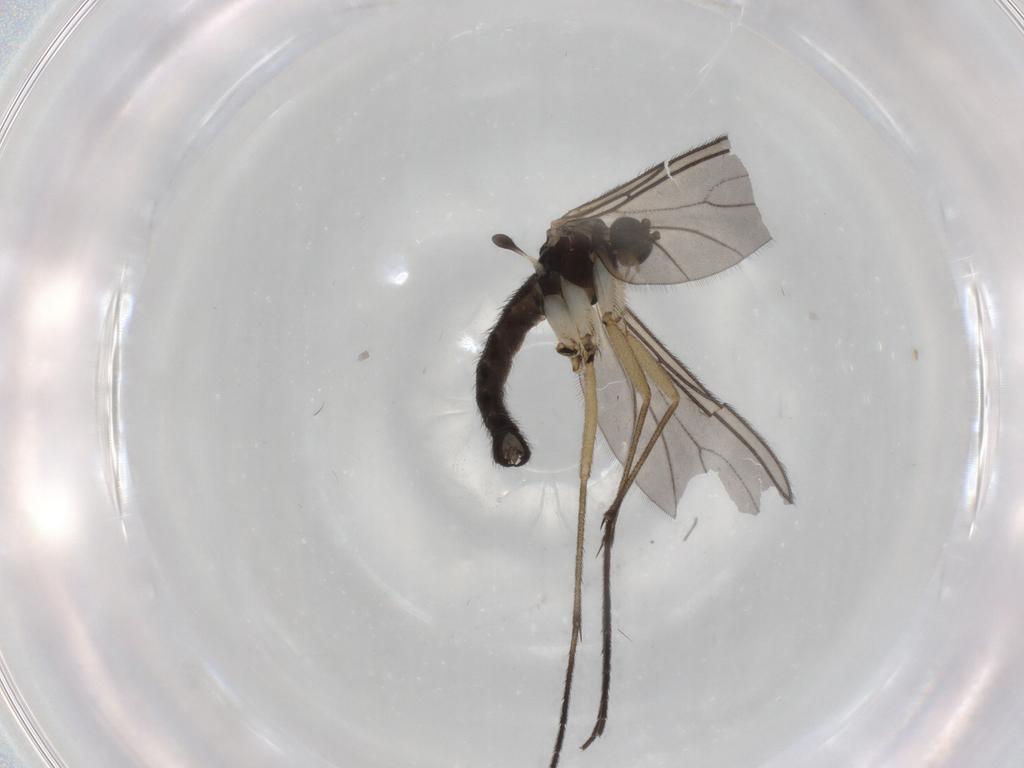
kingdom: Animalia
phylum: Arthropoda
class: Insecta
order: Diptera
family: Sciaridae
